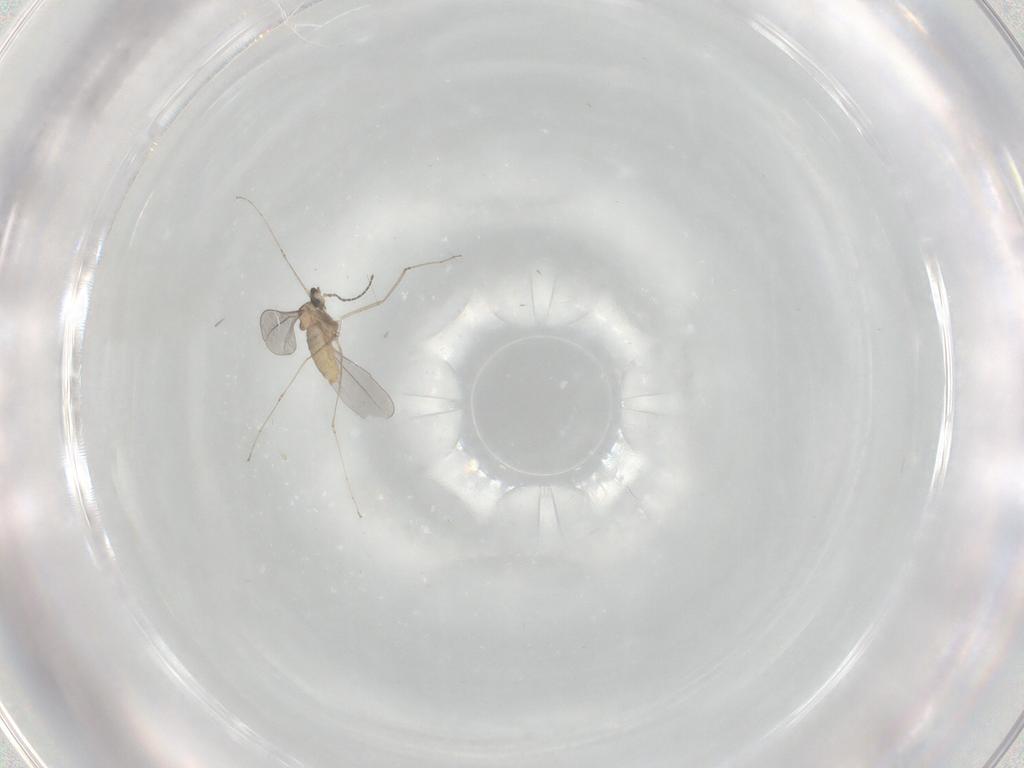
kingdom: Animalia
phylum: Arthropoda
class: Insecta
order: Diptera
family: Cecidomyiidae
